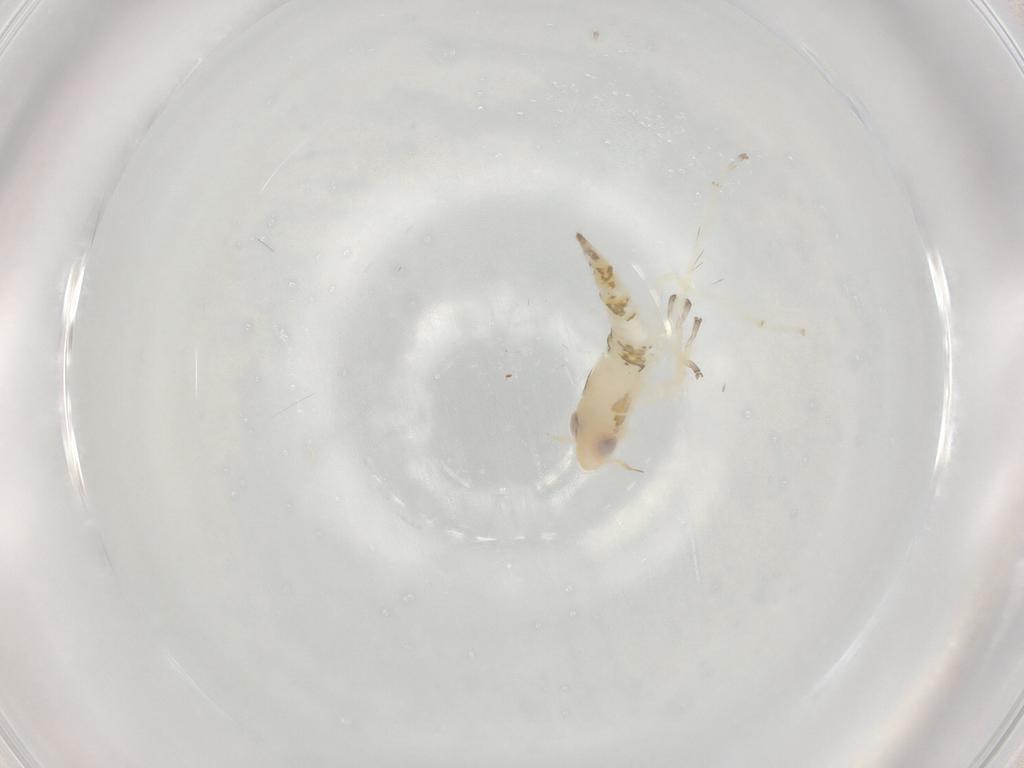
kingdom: Animalia
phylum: Arthropoda
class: Insecta
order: Hemiptera
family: Cicadellidae
